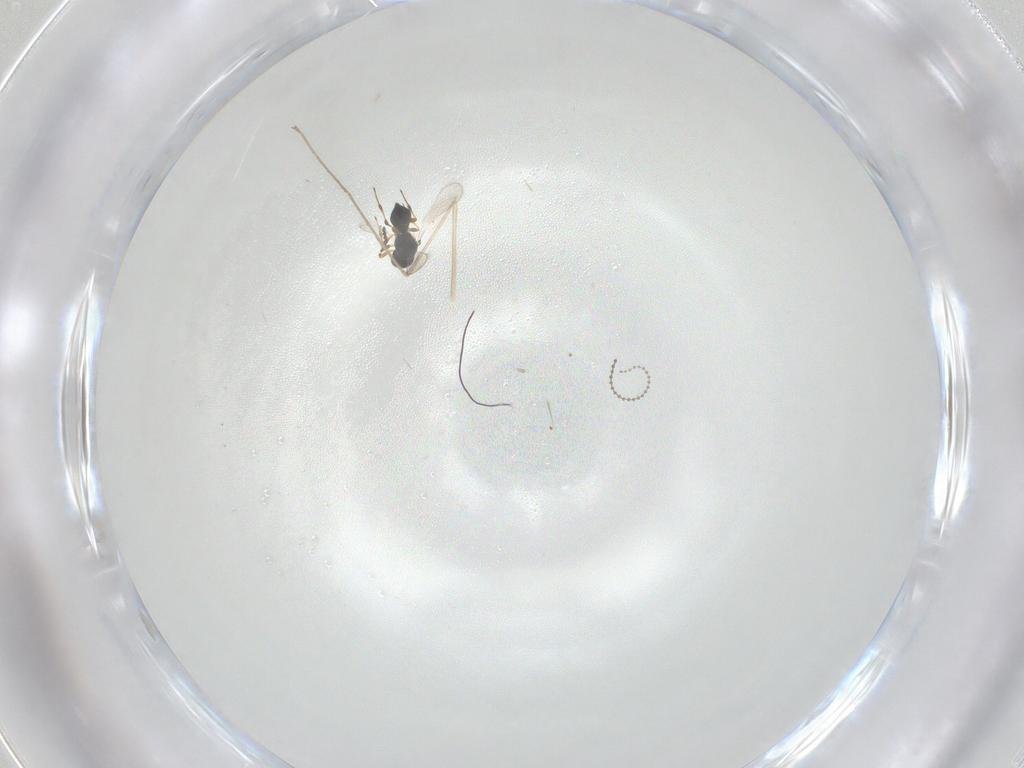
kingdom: Animalia
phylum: Arthropoda
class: Insecta
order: Hymenoptera
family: Platygastridae
